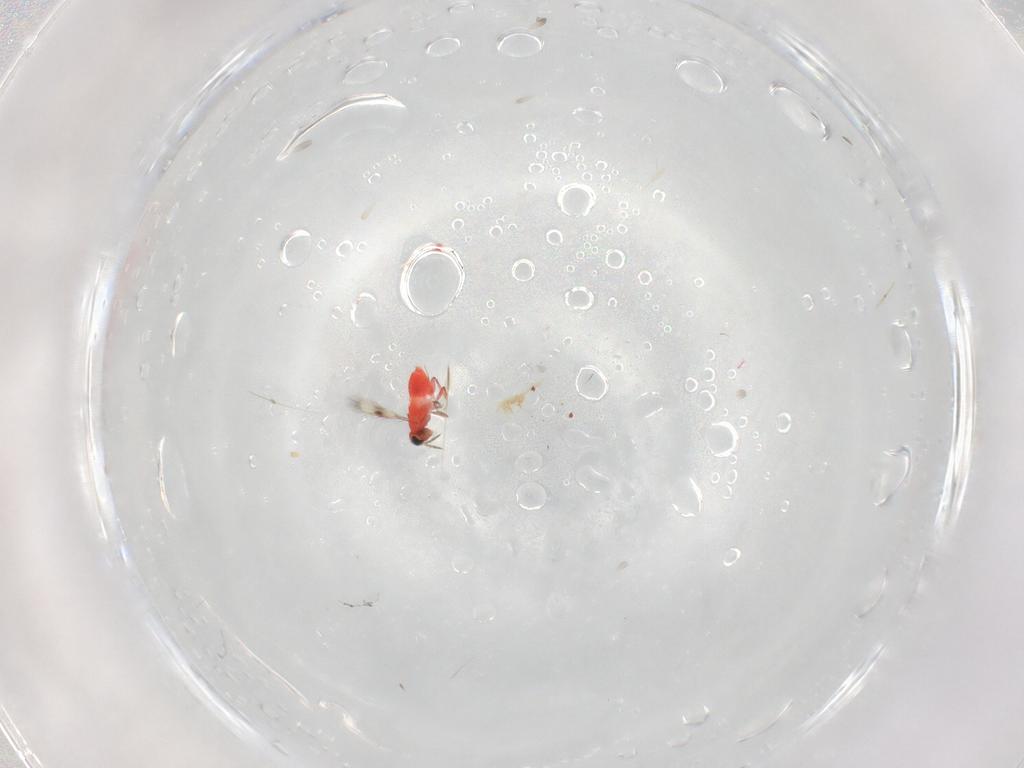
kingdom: Animalia
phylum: Arthropoda
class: Insecta
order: Hymenoptera
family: Trichogrammatidae
